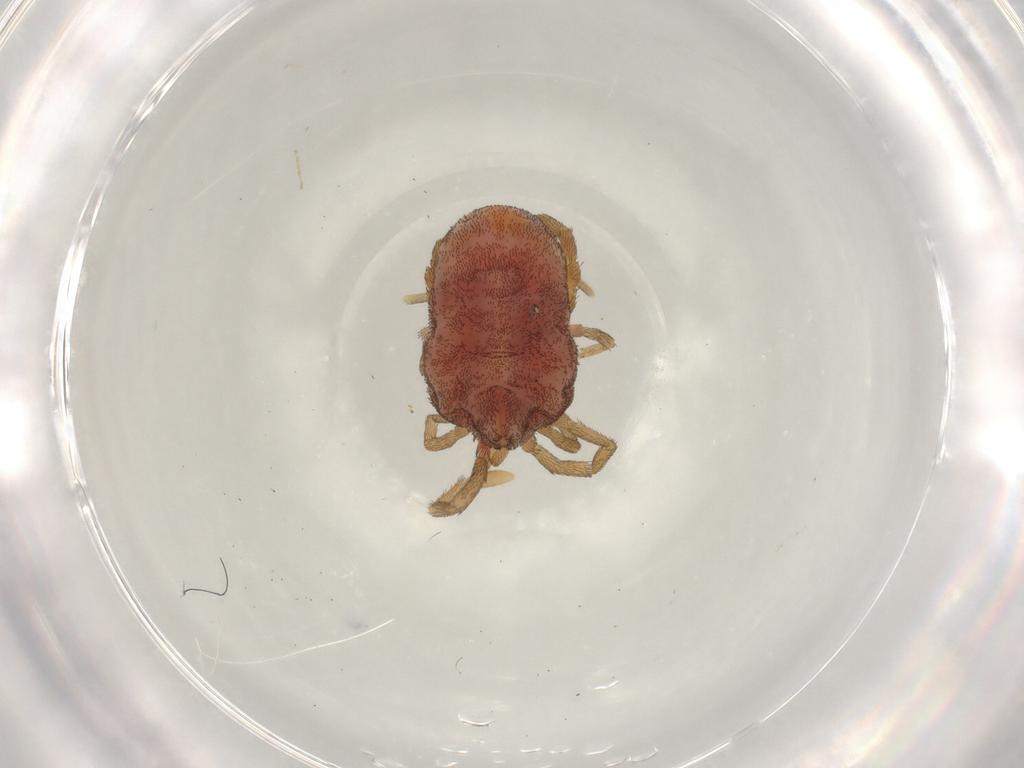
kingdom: Animalia
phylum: Arthropoda
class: Arachnida
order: Trombidiformes
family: Erythraeidae
